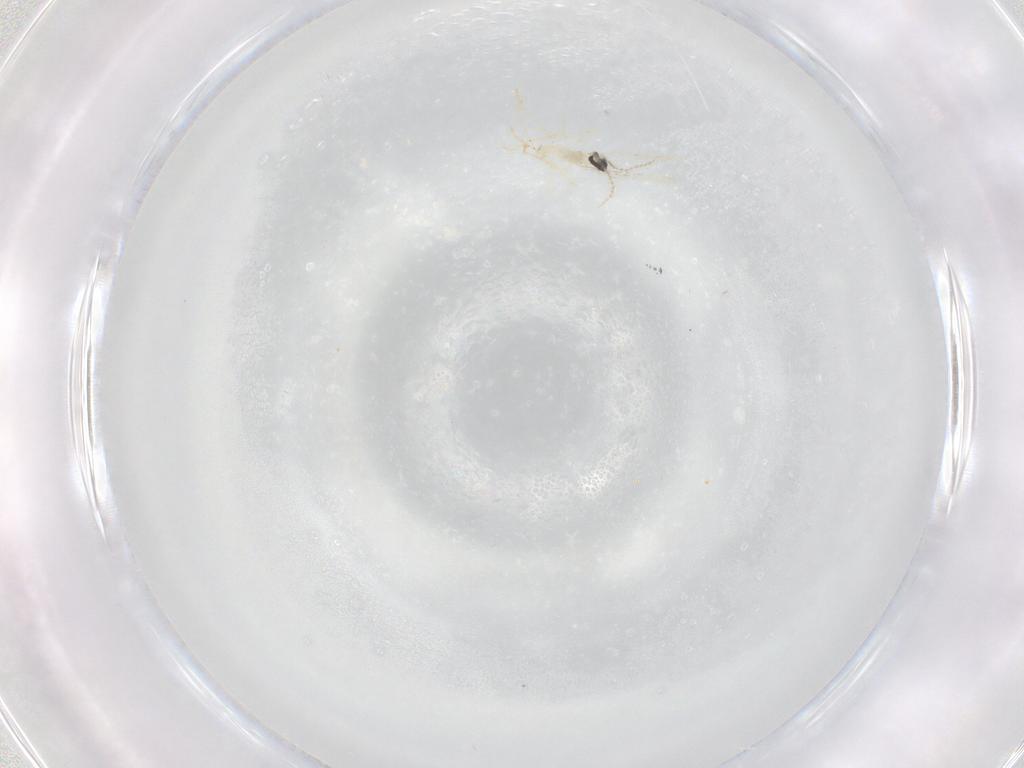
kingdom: Animalia
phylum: Arthropoda
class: Insecta
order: Diptera
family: Cecidomyiidae
